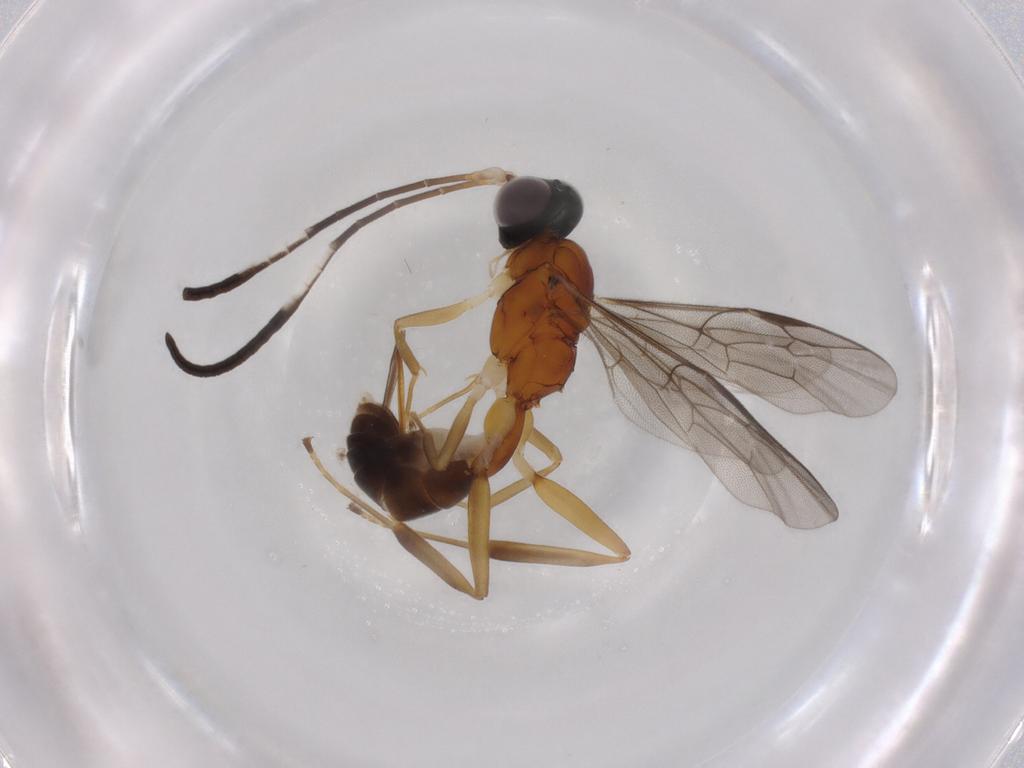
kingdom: Animalia
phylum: Arthropoda
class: Insecta
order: Hymenoptera
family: Ichneumonidae
